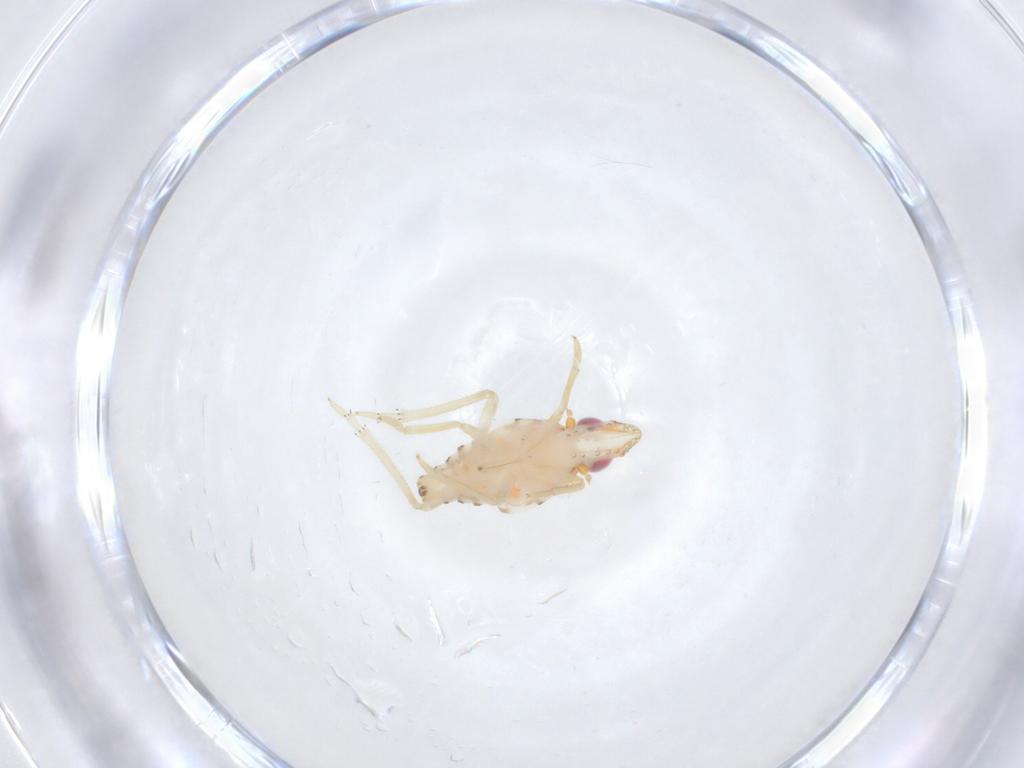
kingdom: Animalia
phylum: Arthropoda
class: Insecta
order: Hemiptera
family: Tropiduchidae
